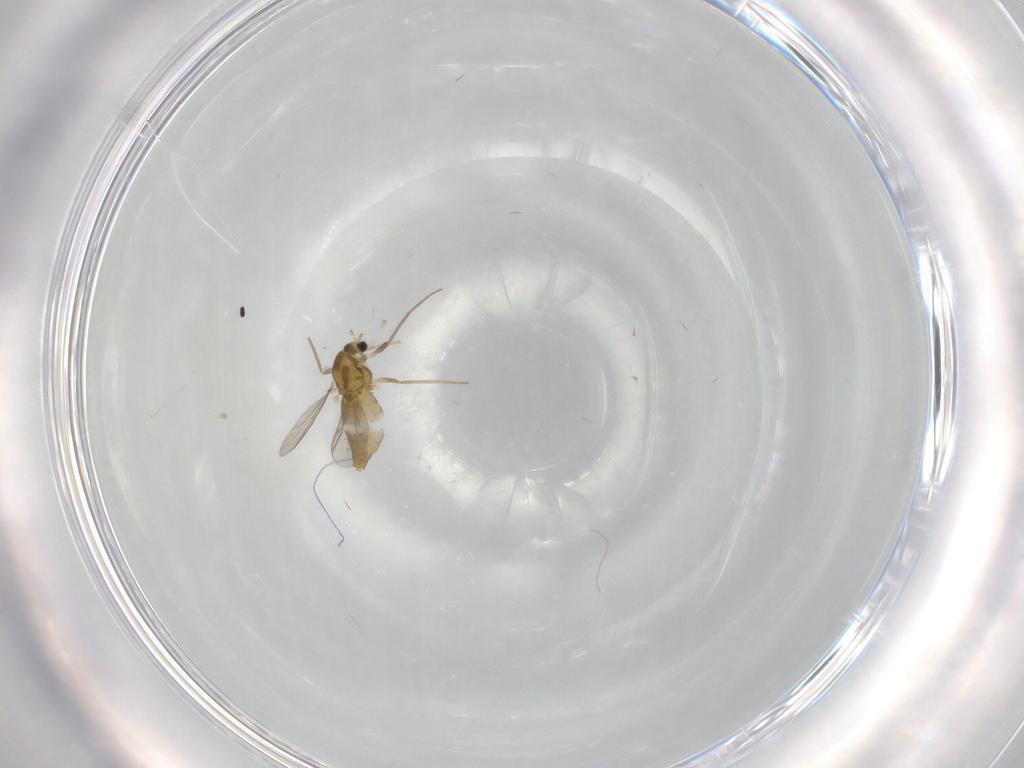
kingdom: Animalia
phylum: Arthropoda
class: Insecta
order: Diptera
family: Chironomidae
